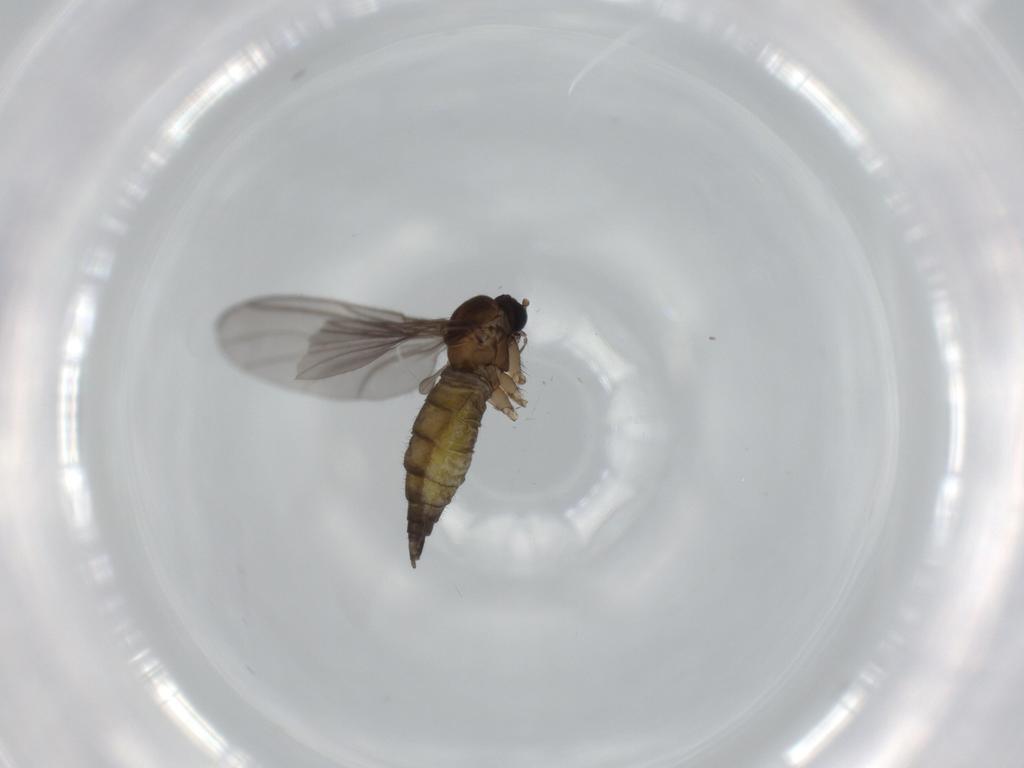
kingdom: Animalia
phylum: Arthropoda
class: Insecta
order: Diptera
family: Sciaridae
